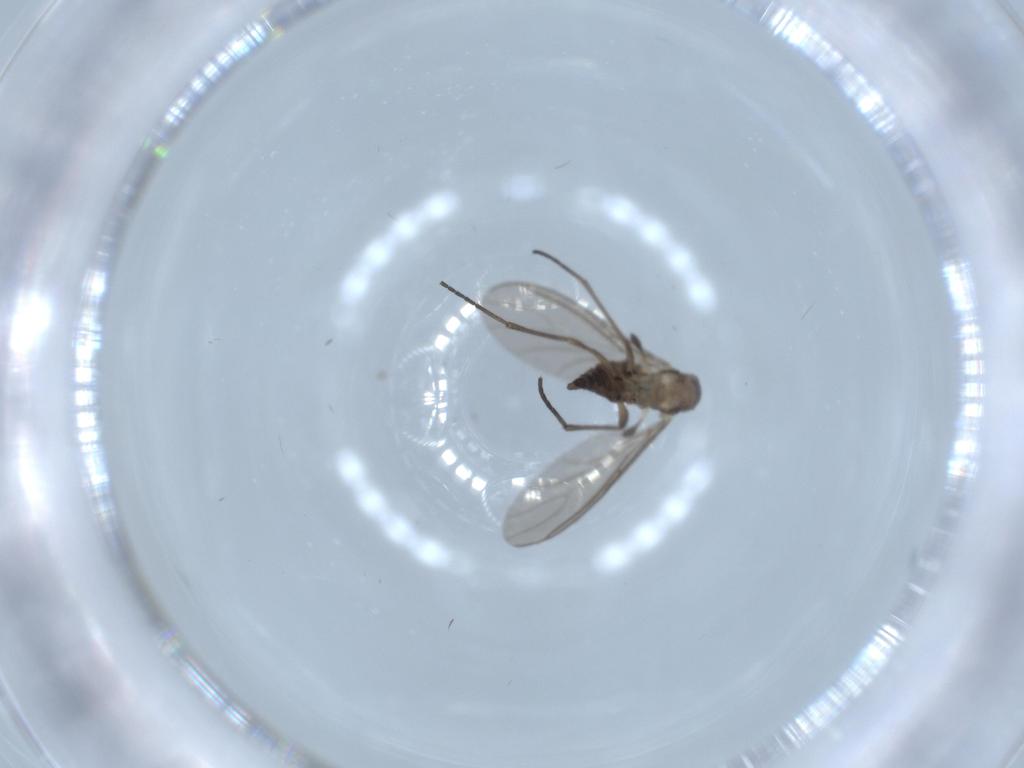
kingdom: Animalia
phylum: Arthropoda
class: Insecta
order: Diptera
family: Sciaridae
